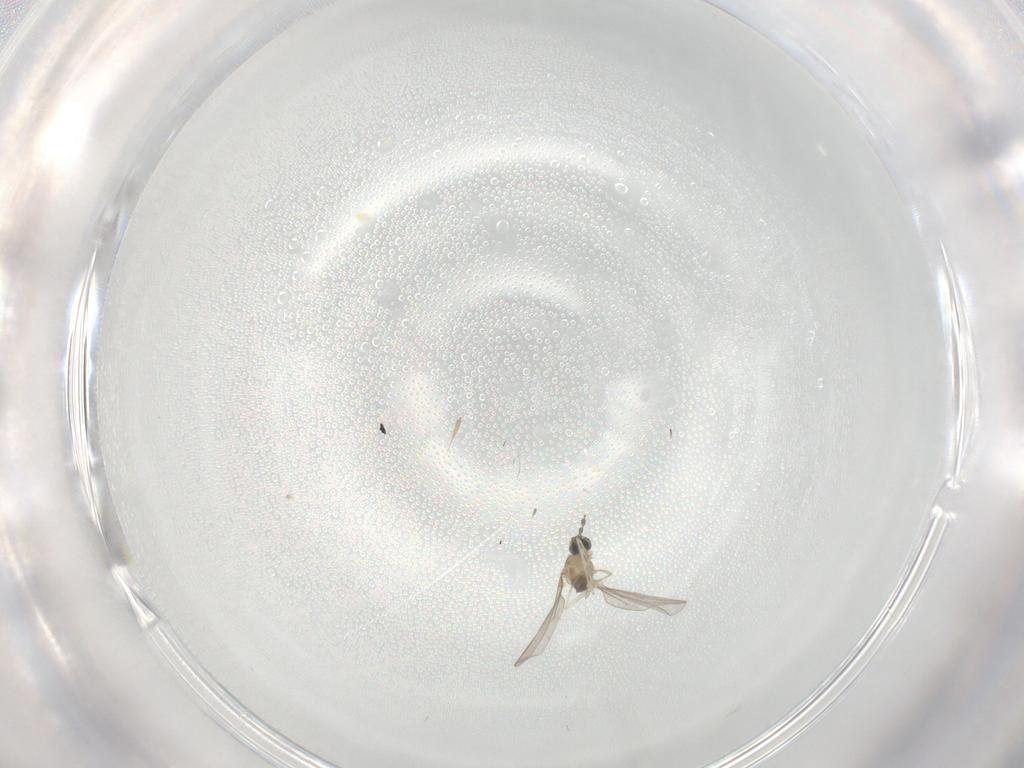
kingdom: Animalia
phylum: Arthropoda
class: Insecta
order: Diptera
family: Cecidomyiidae
